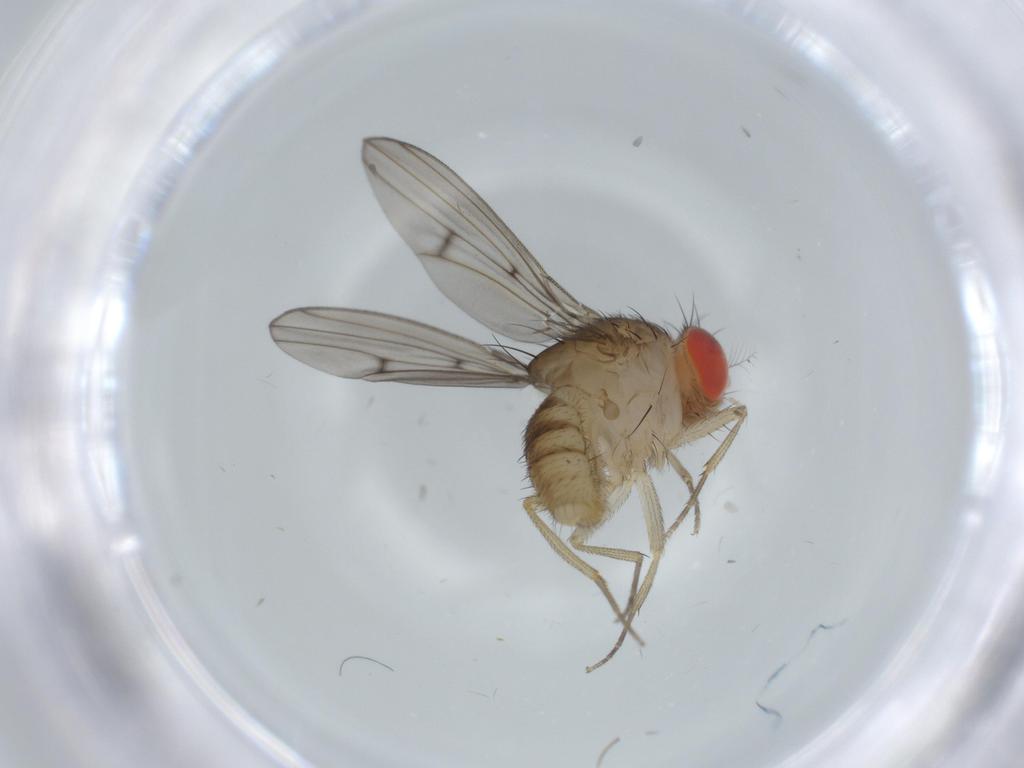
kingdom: Animalia
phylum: Arthropoda
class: Insecta
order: Diptera
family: Drosophilidae
